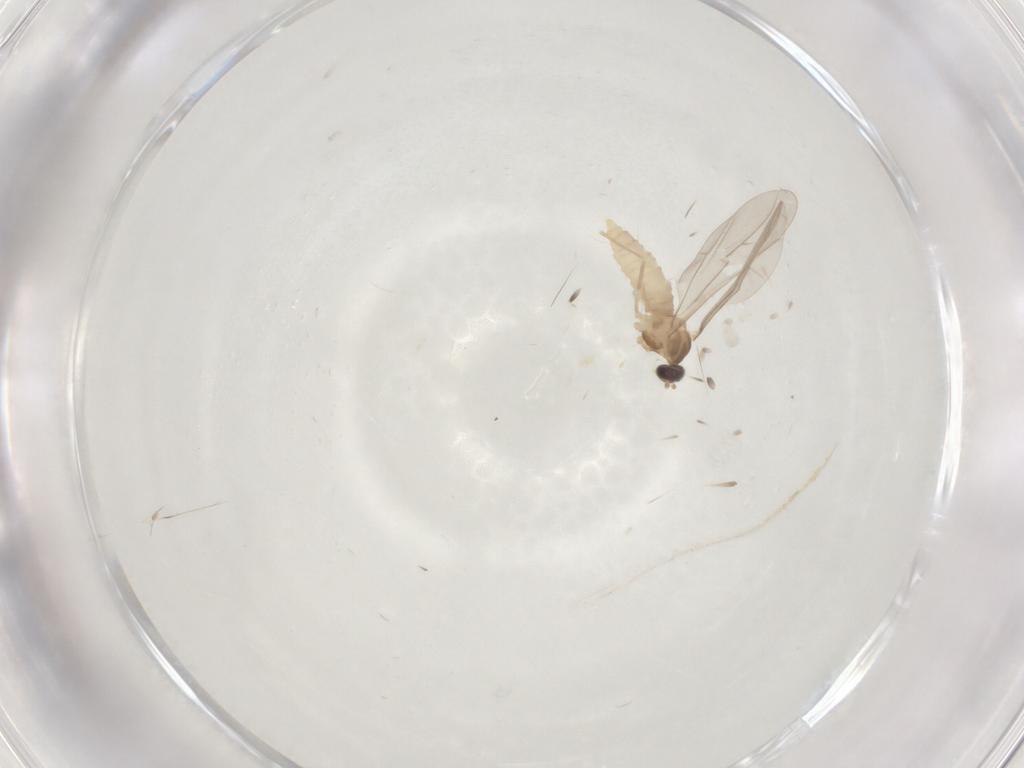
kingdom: Animalia
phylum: Arthropoda
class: Insecta
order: Diptera
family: Cecidomyiidae
